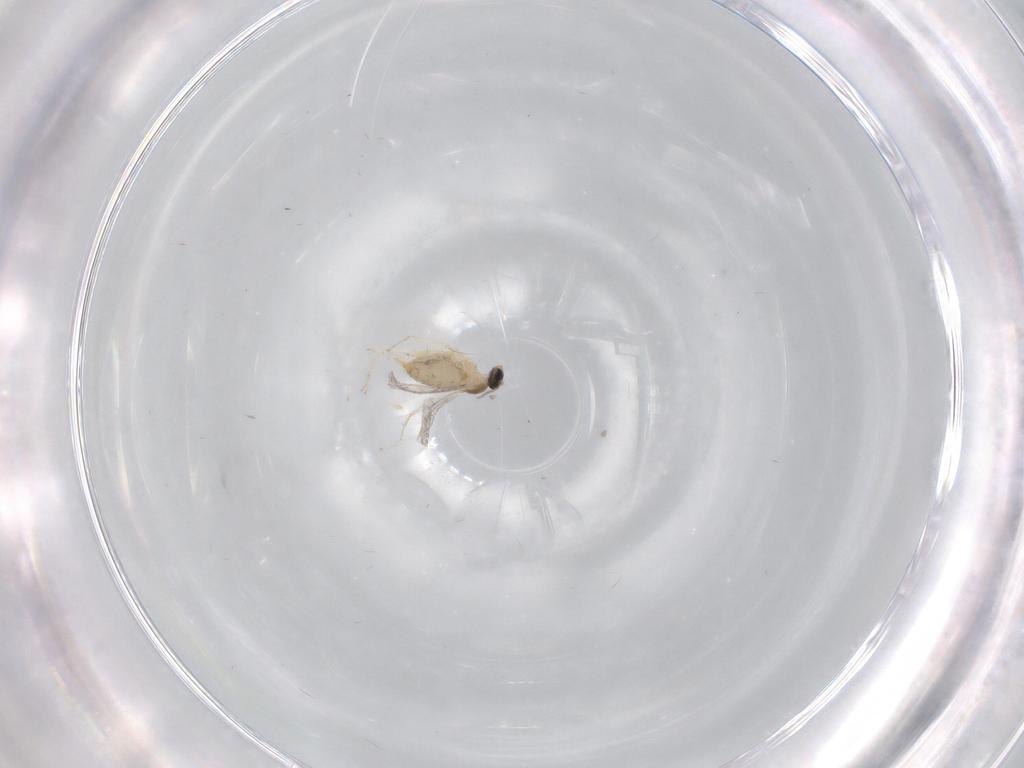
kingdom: Animalia
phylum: Arthropoda
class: Insecta
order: Diptera
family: Asilidae
